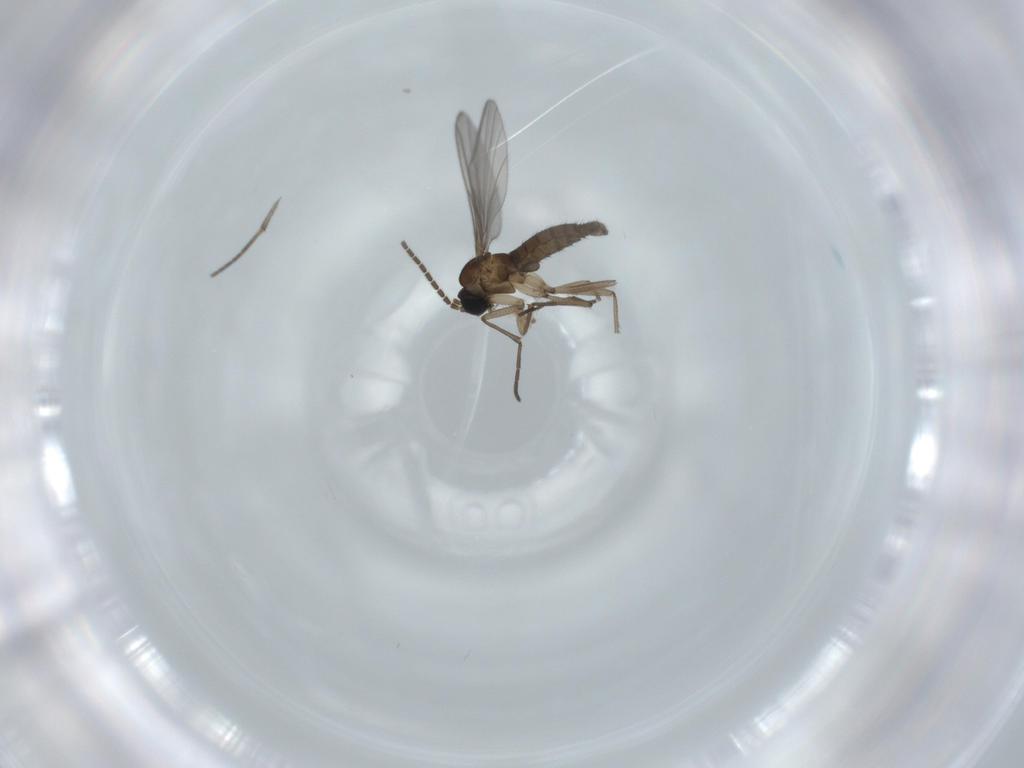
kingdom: Animalia
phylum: Arthropoda
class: Insecta
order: Diptera
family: Sciaridae
